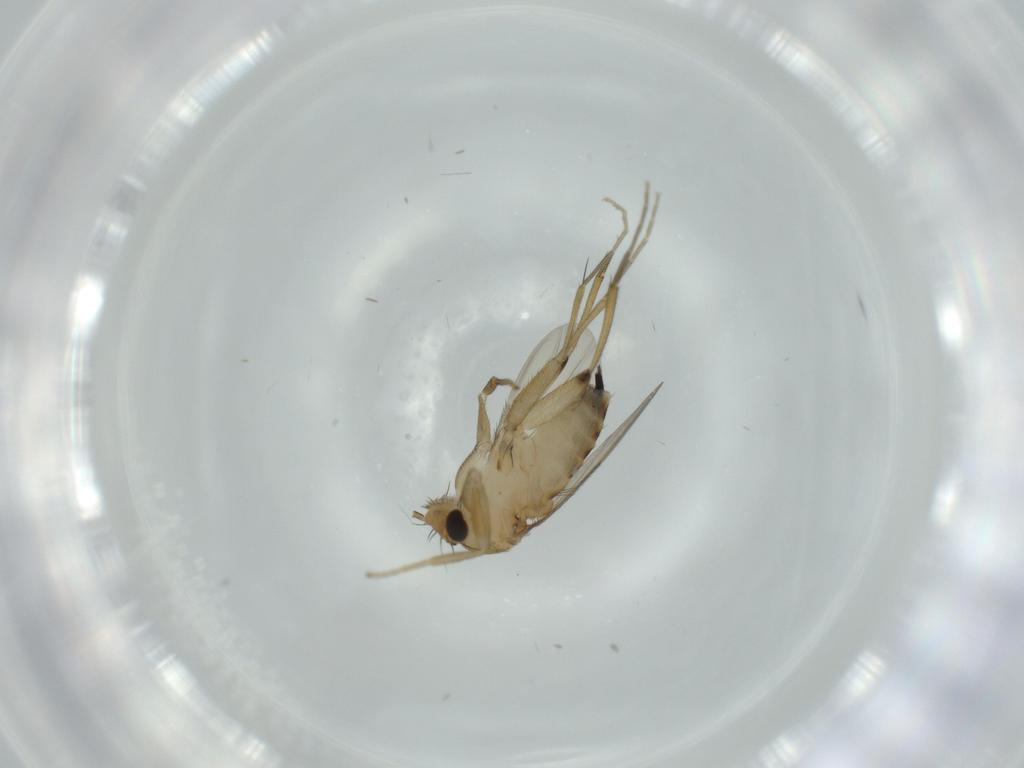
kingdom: Animalia
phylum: Arthropoda
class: Insecta
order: Diptera
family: Phoridae
